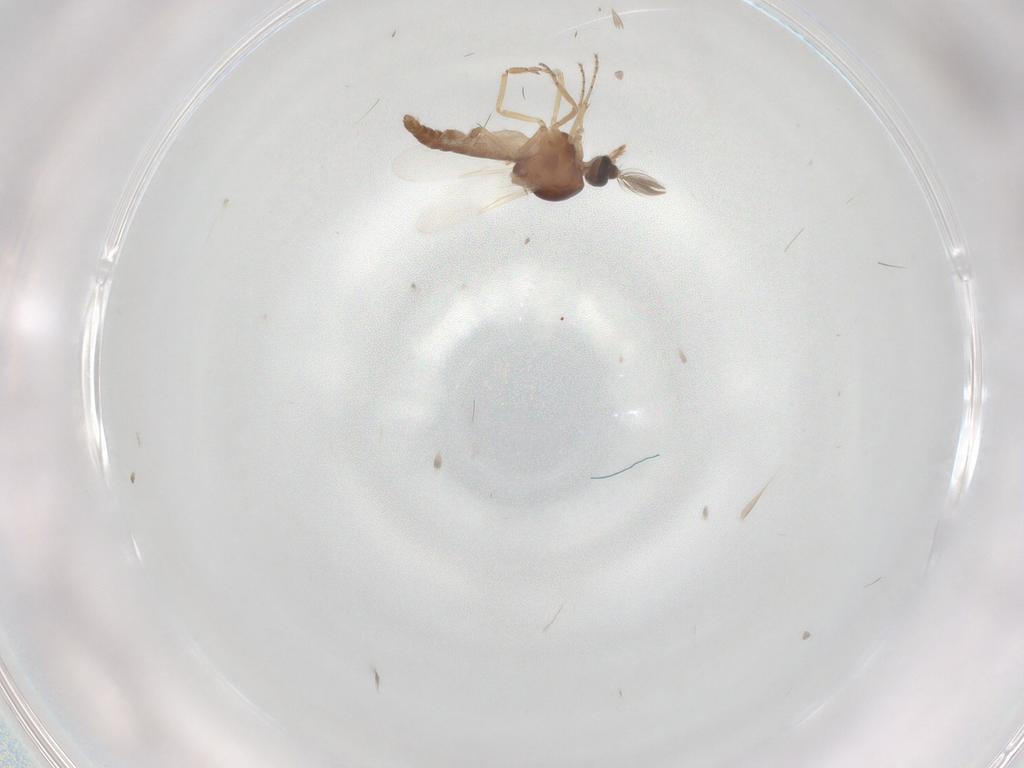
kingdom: Animalia
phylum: Arthropoda
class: Insecta
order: Diptera
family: Ceratopogonidae
